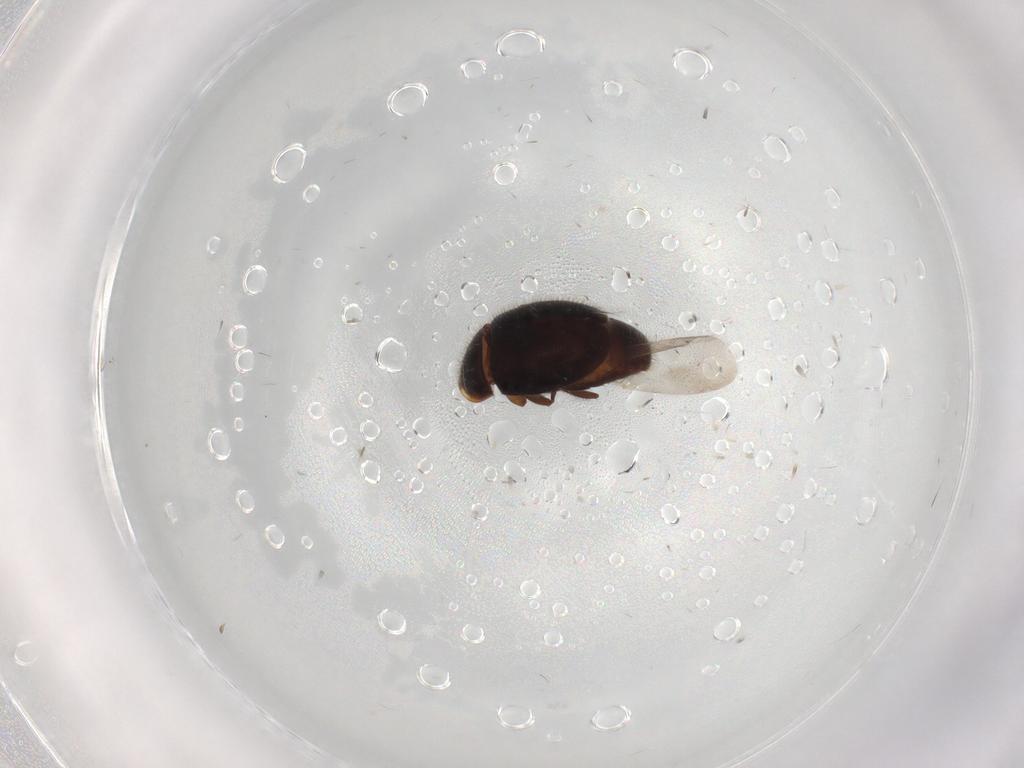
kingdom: Animalia
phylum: Arthropoda
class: Insecta
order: Coleoptera
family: Corylophidae
